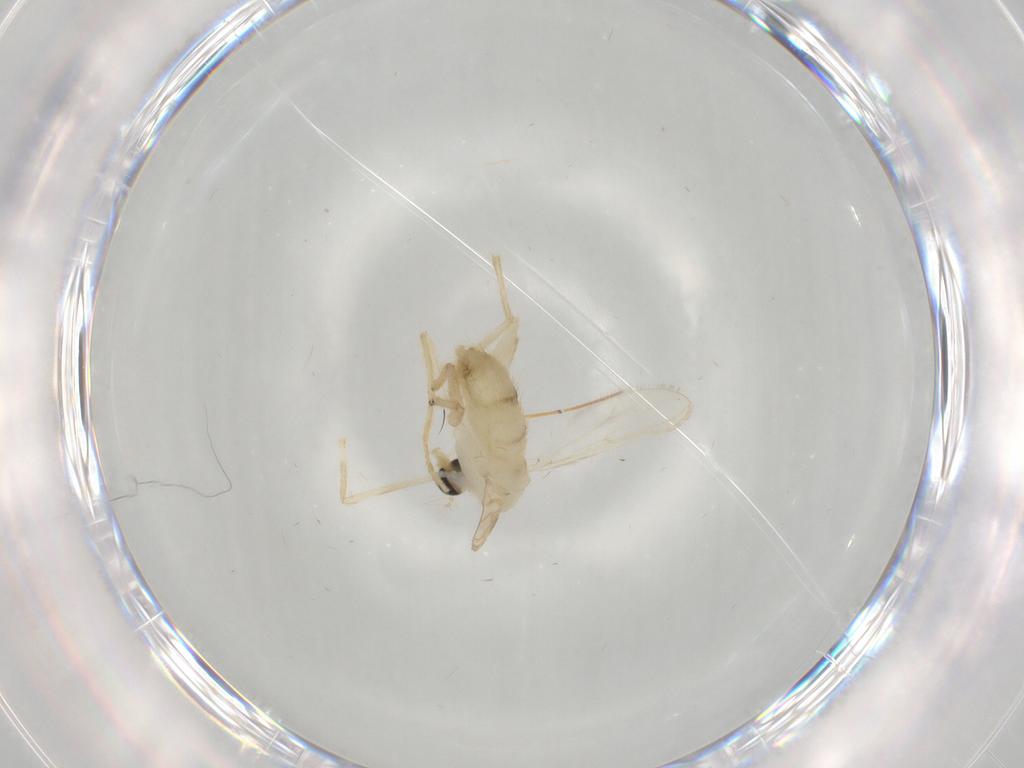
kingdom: Animalia
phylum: Arthropoda
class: Insecta
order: Diptera
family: Chironomidae
